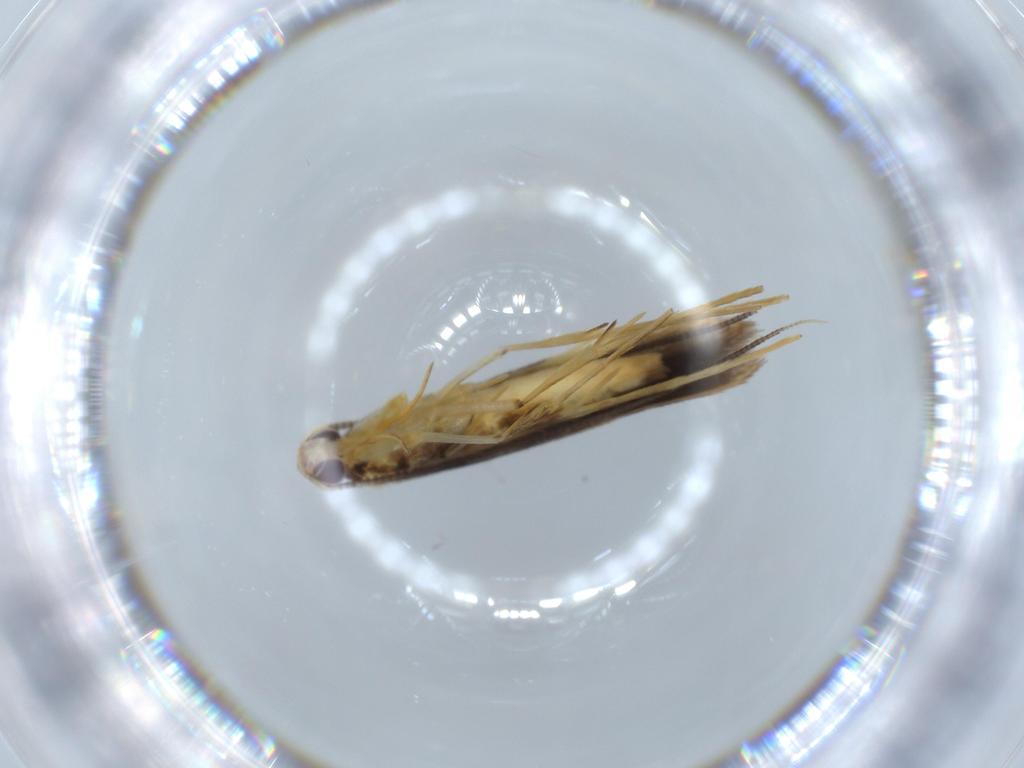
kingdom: Animalia
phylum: Arthropoda
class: Insecta
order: Lepidoptera
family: Gracillariidae
